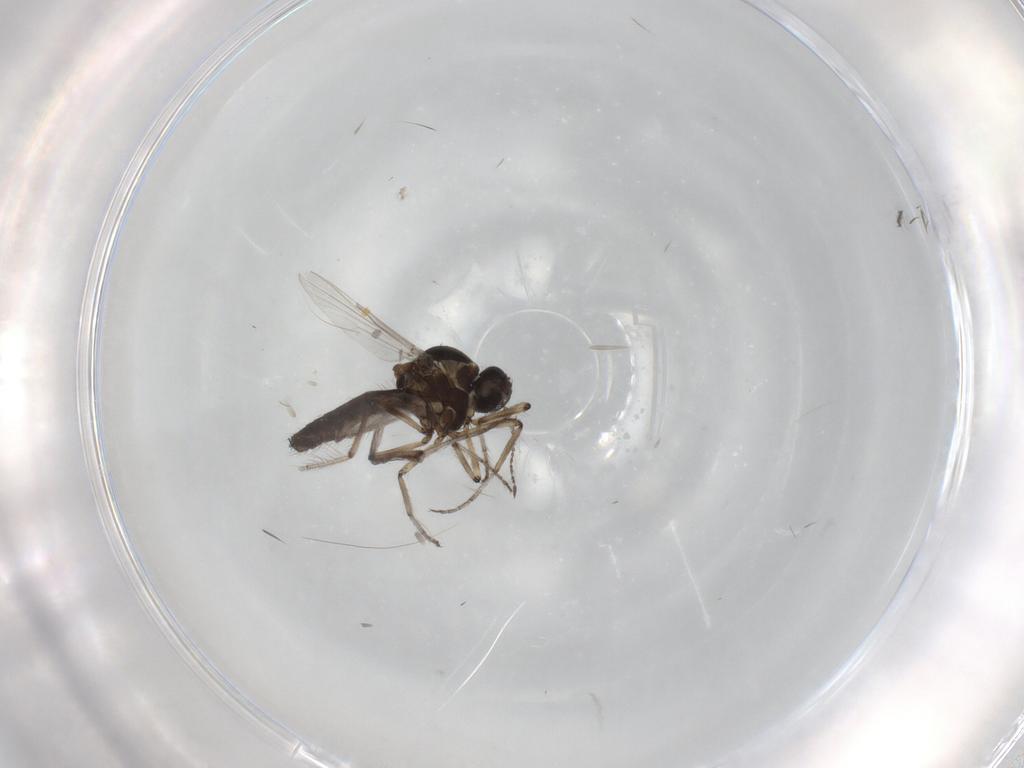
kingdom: Animalia
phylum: Arthropoda
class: Insecta
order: Diptera
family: Ceratopogonidae
